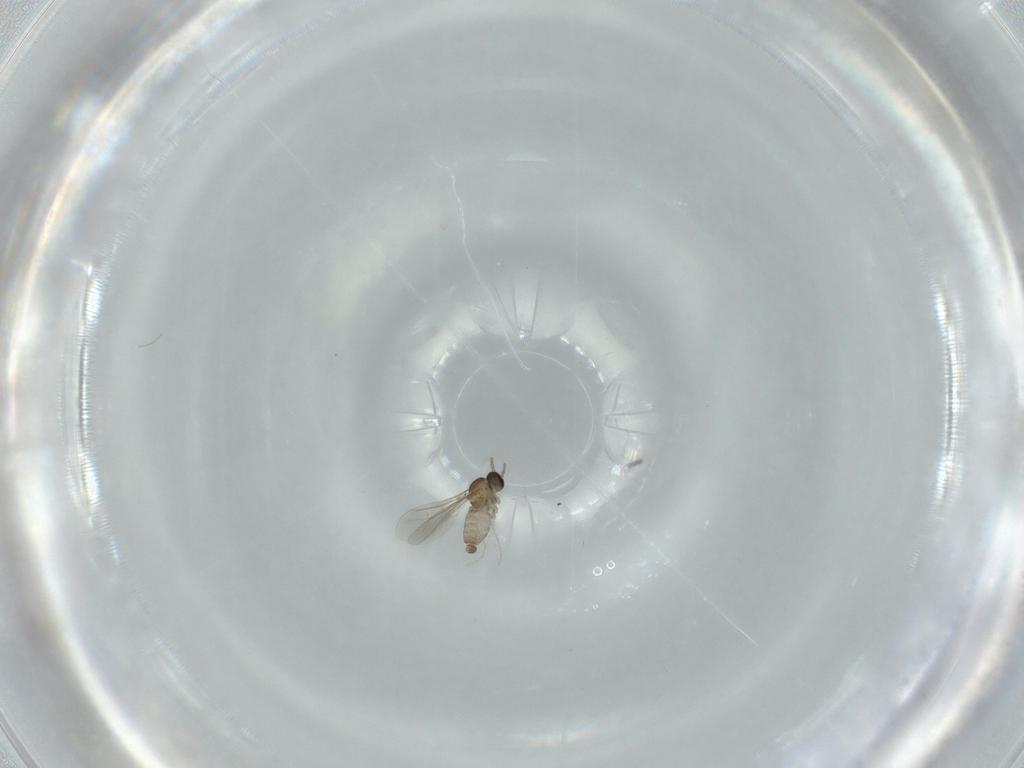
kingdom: Animalia
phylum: Arthropoda
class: Insecta
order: Diptera
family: Cecidomyiidae
